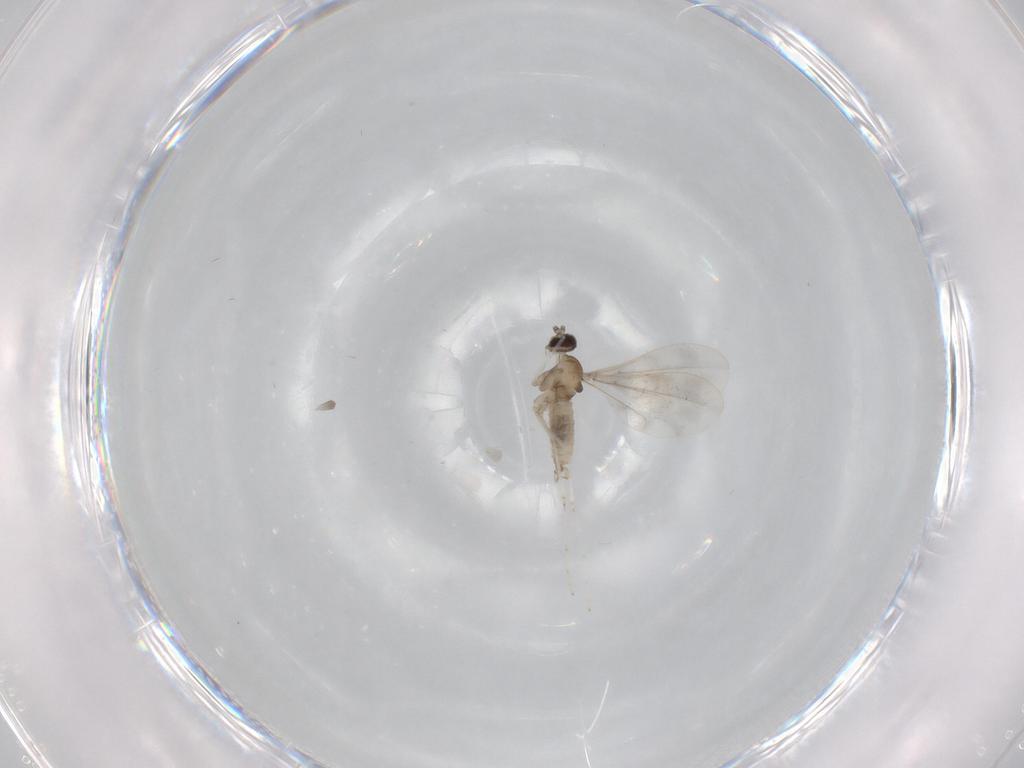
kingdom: Animalia
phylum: Arthropoda
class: Insecta
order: Diptera
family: Cecidomyiidae
